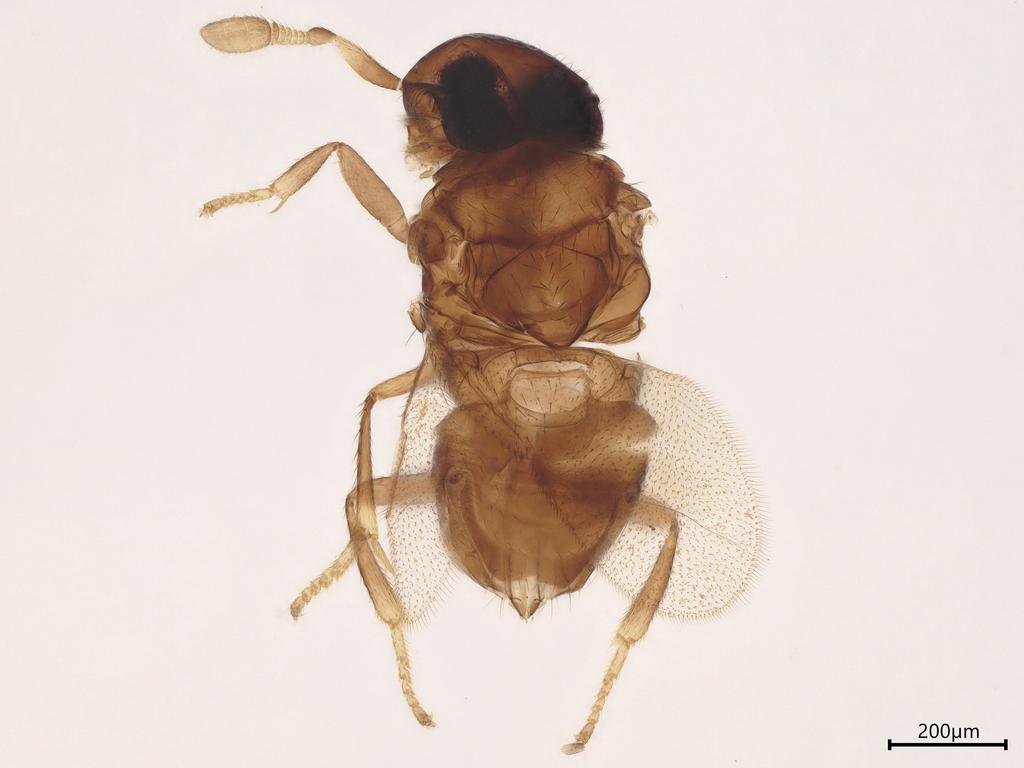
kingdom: Animalia
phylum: Arthropoda
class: Insecta
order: Hymenoptera
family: Encyrtidae
